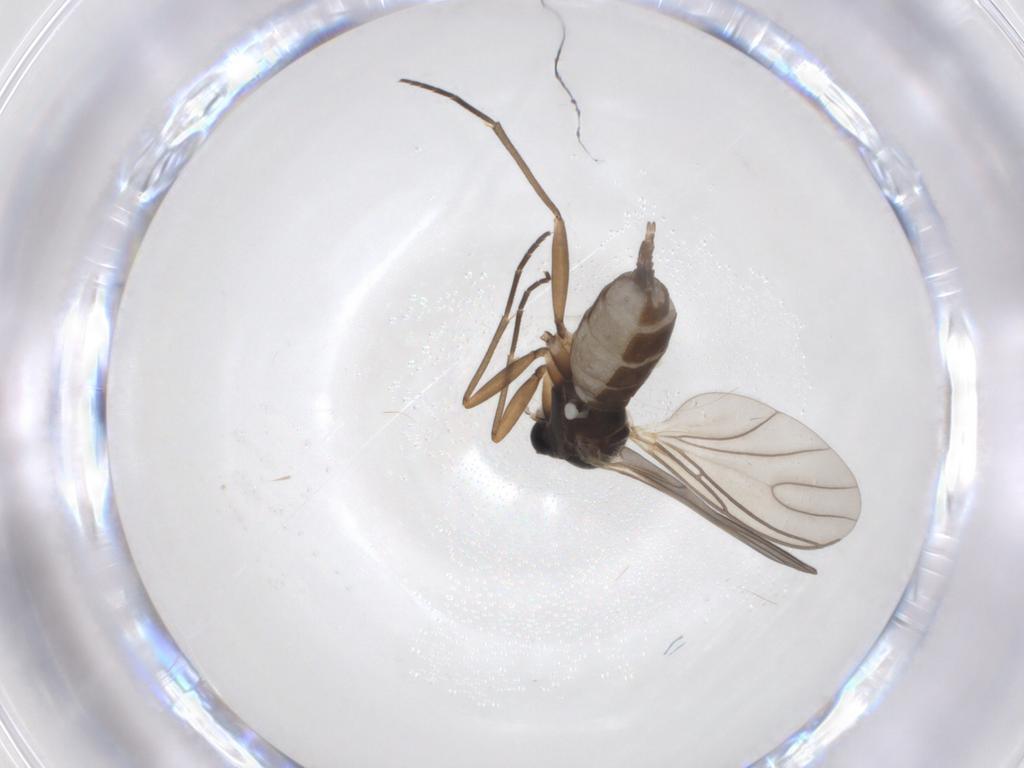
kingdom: Animalia
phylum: Arthropoda
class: Insecta
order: Diptera
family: Sciaridae
